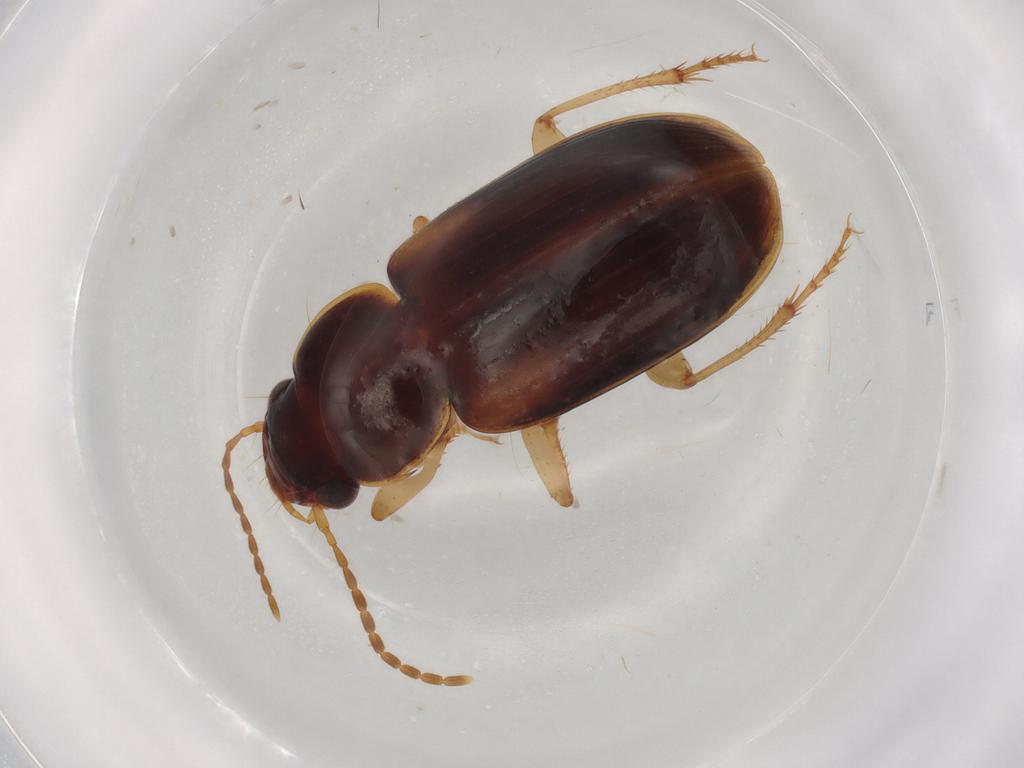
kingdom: Animalia
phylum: Arthropoda
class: Insecta
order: Coleoptera
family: Carabidae
